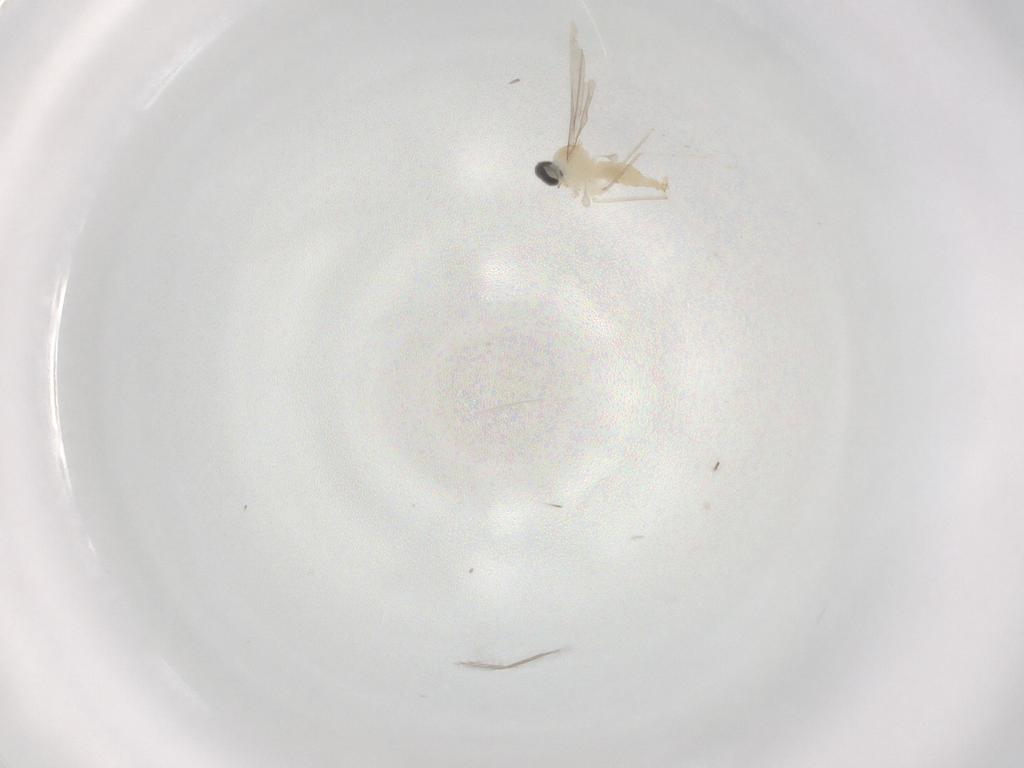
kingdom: Animalia
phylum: Arthropoda
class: Insecta
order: Diptera
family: Cecidomyiidae
